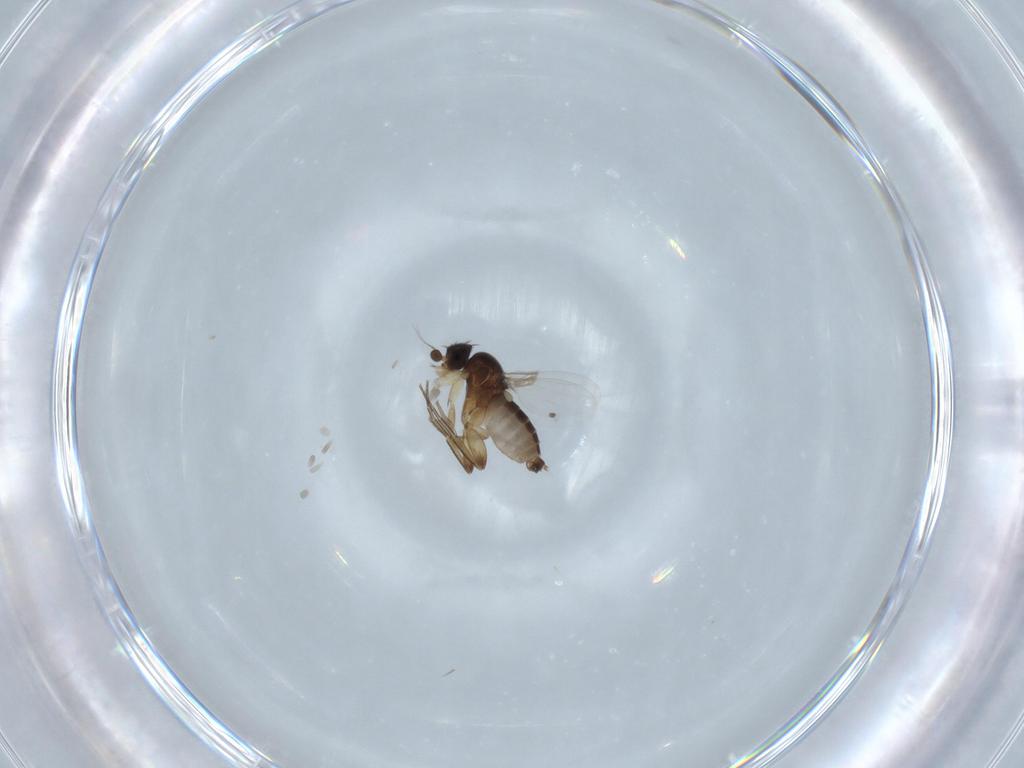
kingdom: Animalia
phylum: Arthropoda
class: Insecta
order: Diptera
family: Phoridae
